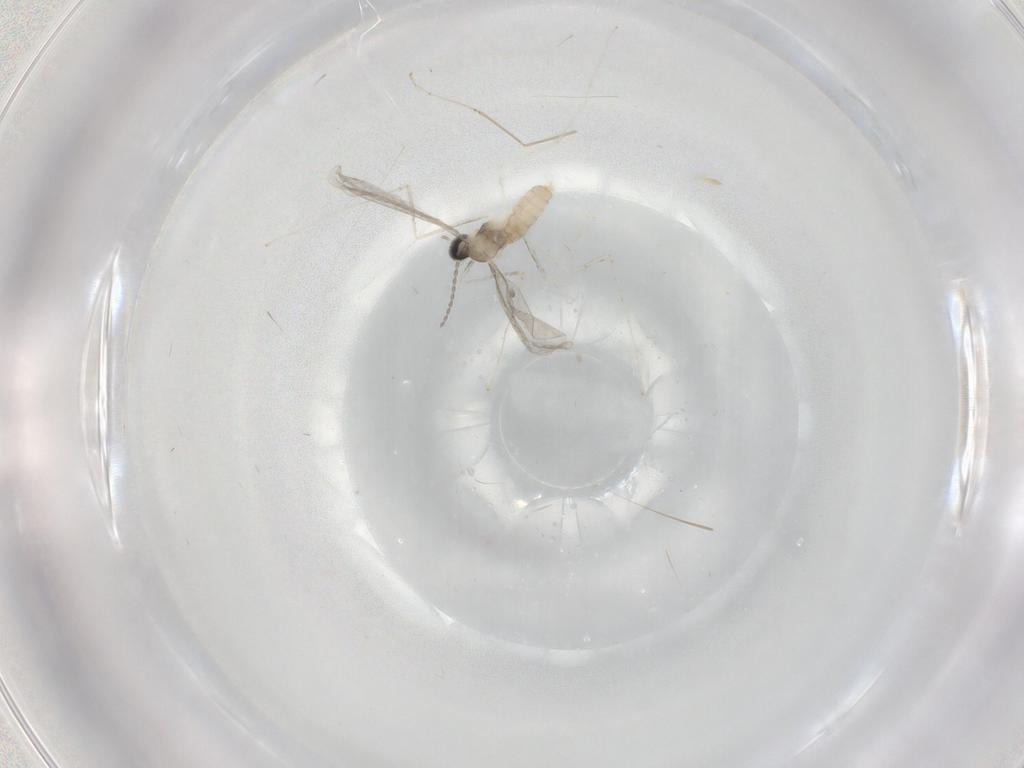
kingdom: Animalia
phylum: Arthropoda
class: Insecta
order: Diptera
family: Cecidomyiidae
